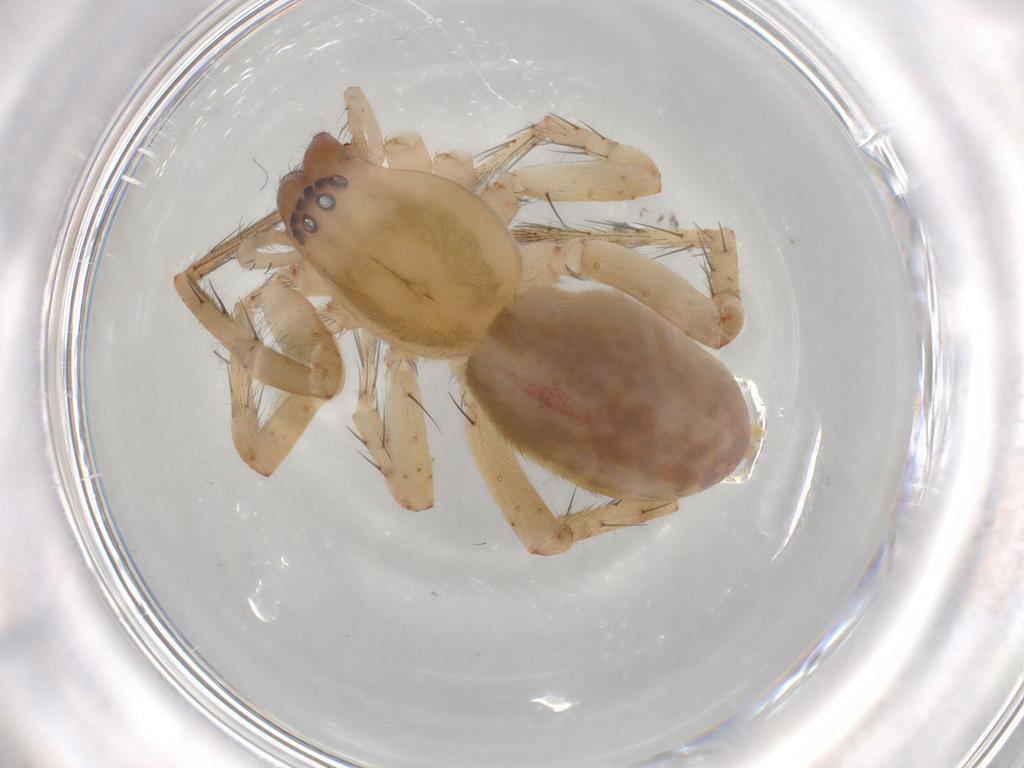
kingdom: Animalia
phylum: Arthropoda
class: Arachnida
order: Araneae
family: Anyphaenidae
